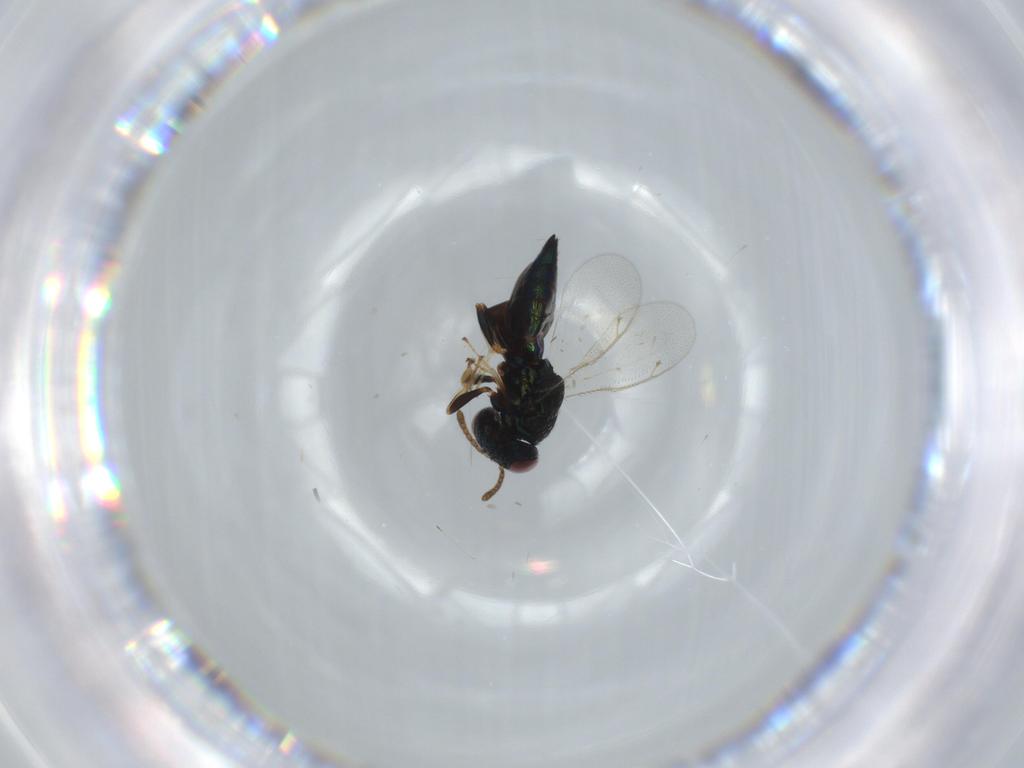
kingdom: Animalia
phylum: Arthropoda
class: Insecta
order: Hymenoptera
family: Pteromalidae
